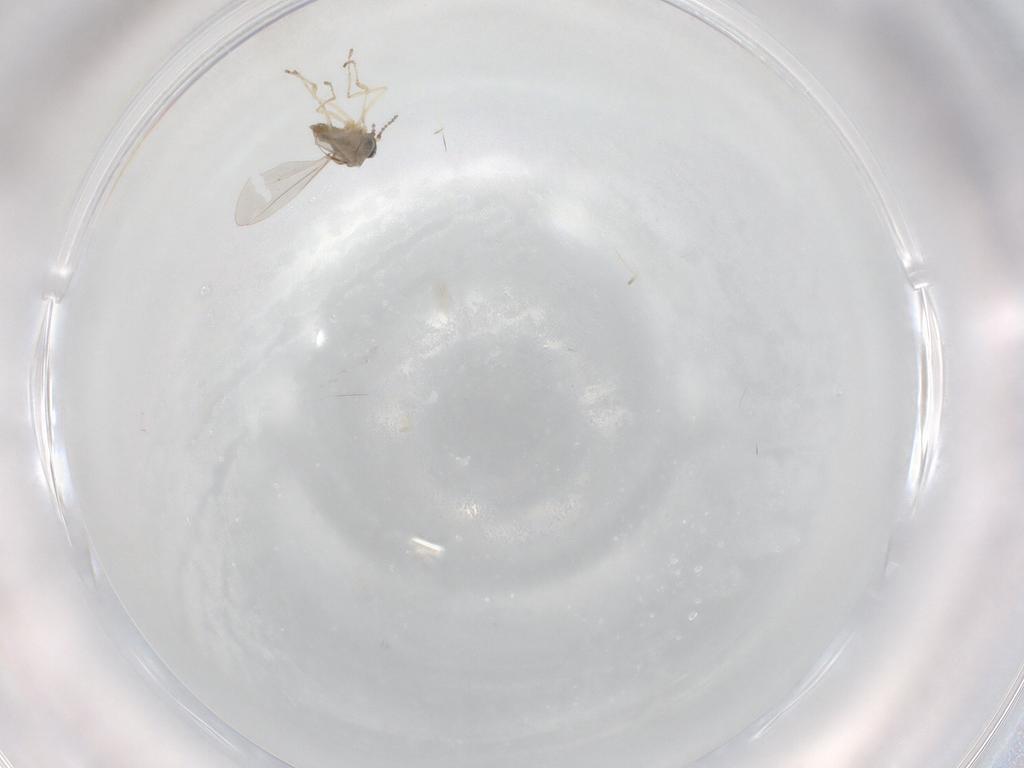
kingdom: Animalia
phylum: Arthropoda
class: Insecta
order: Diptera
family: Cecidomyiidae
